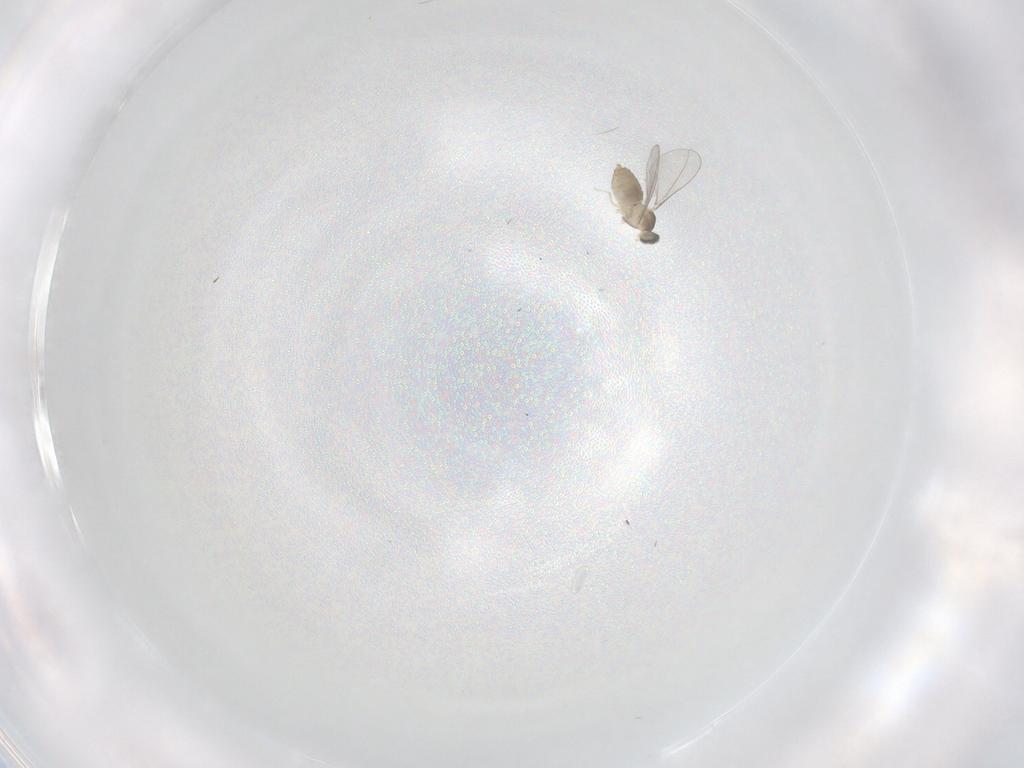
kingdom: Animalia
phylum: Arthropoda
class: Insecta
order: Diptera
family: Cecidomyiidae
